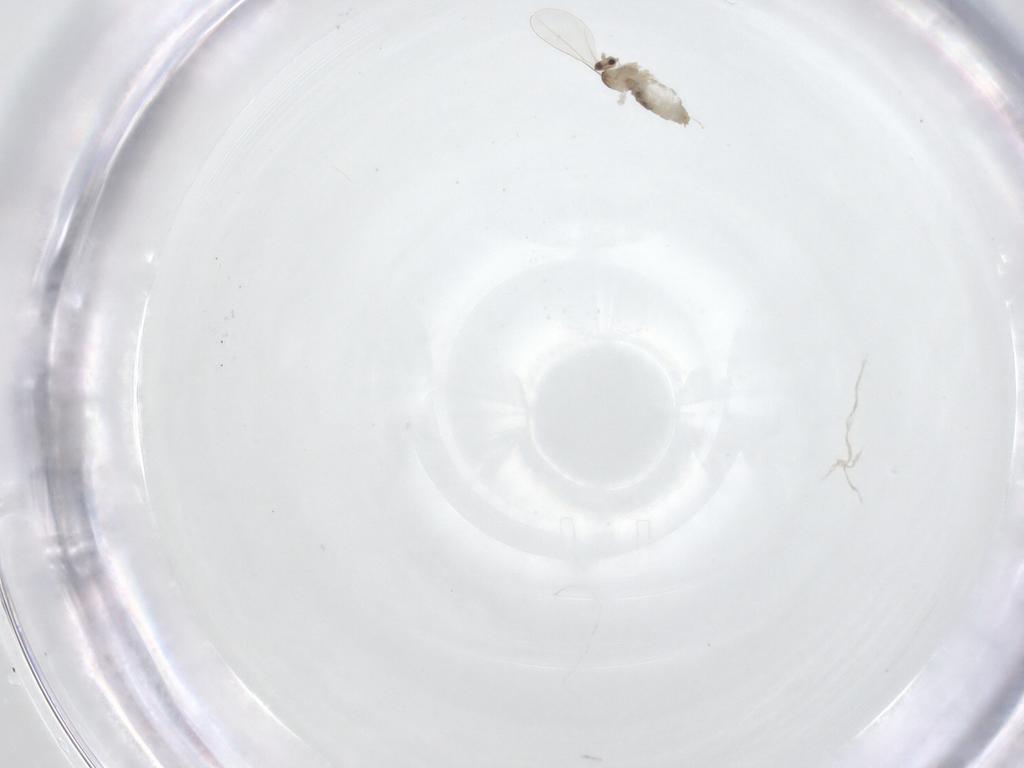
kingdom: Animalia
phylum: Arthropoda
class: Insecta
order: Diptera
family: Cecidomyiidae
